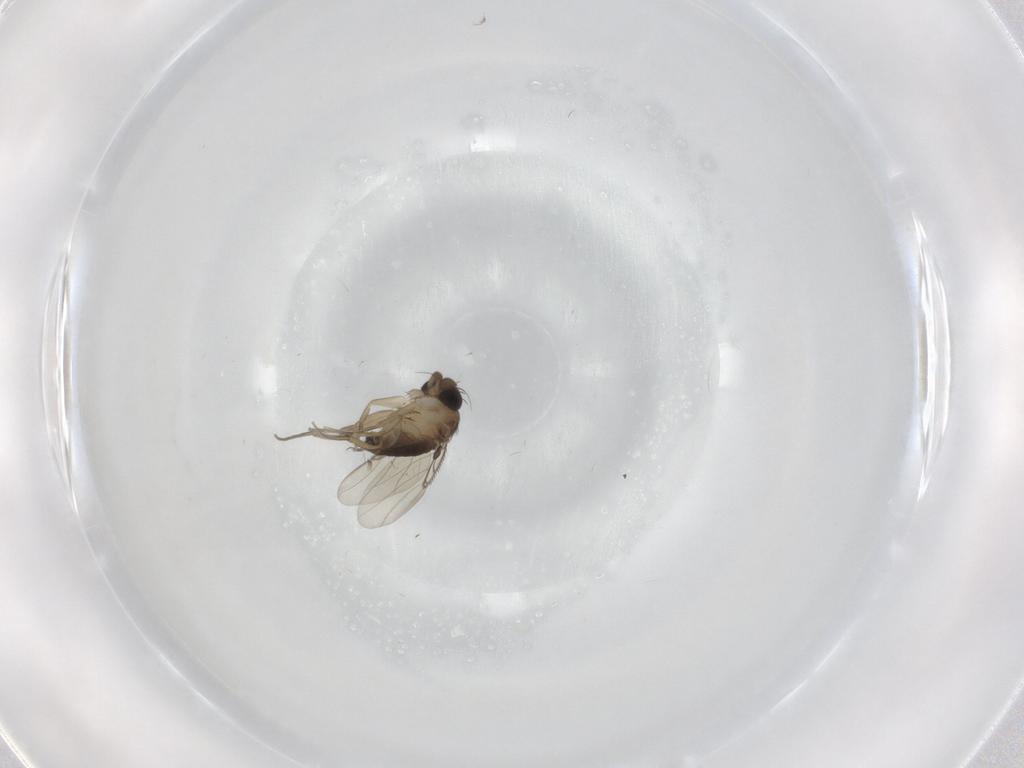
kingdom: Animalia
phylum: Arthropoda
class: Insecta
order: Diptera
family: Phoridae
